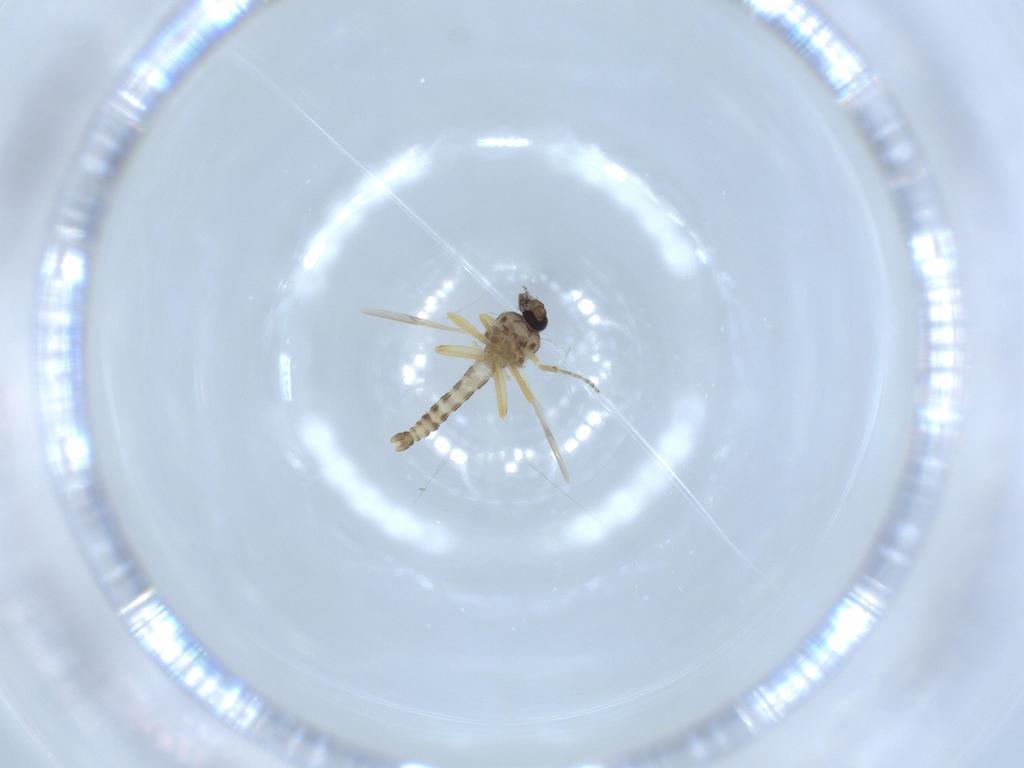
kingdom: Animalia
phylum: Arthropoda
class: Insecta
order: Diptera
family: Ceratopogonidae
